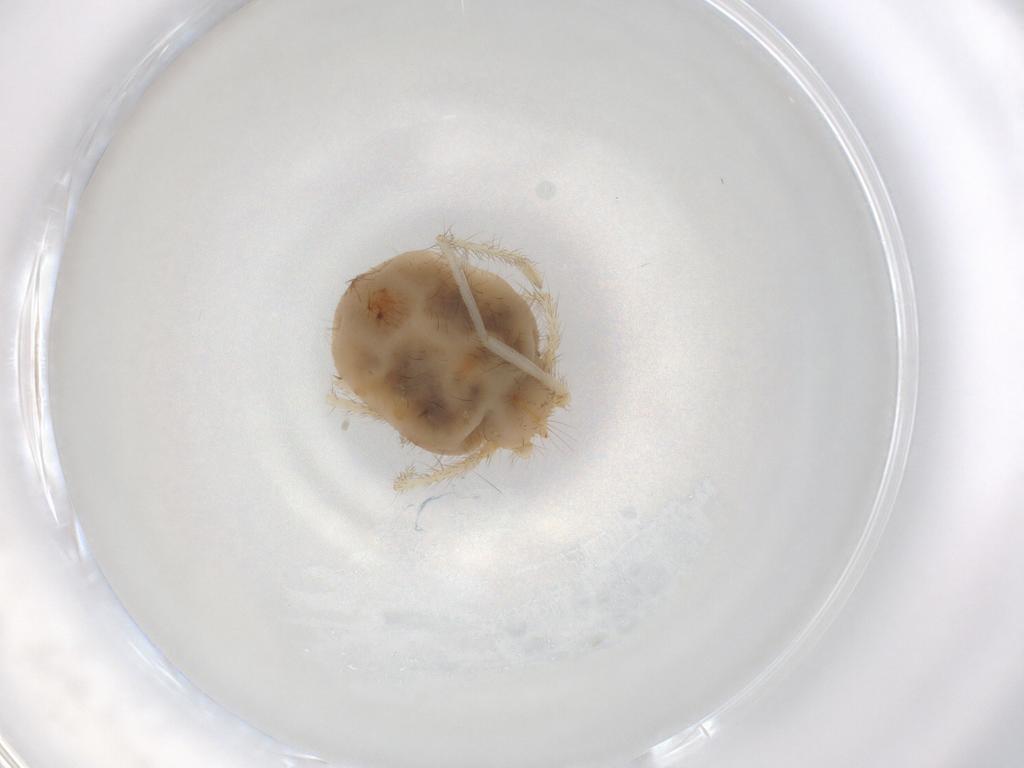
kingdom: Animalia
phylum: Arthropoda
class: Arachnida
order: Trombidiformes
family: Erythraeidae
